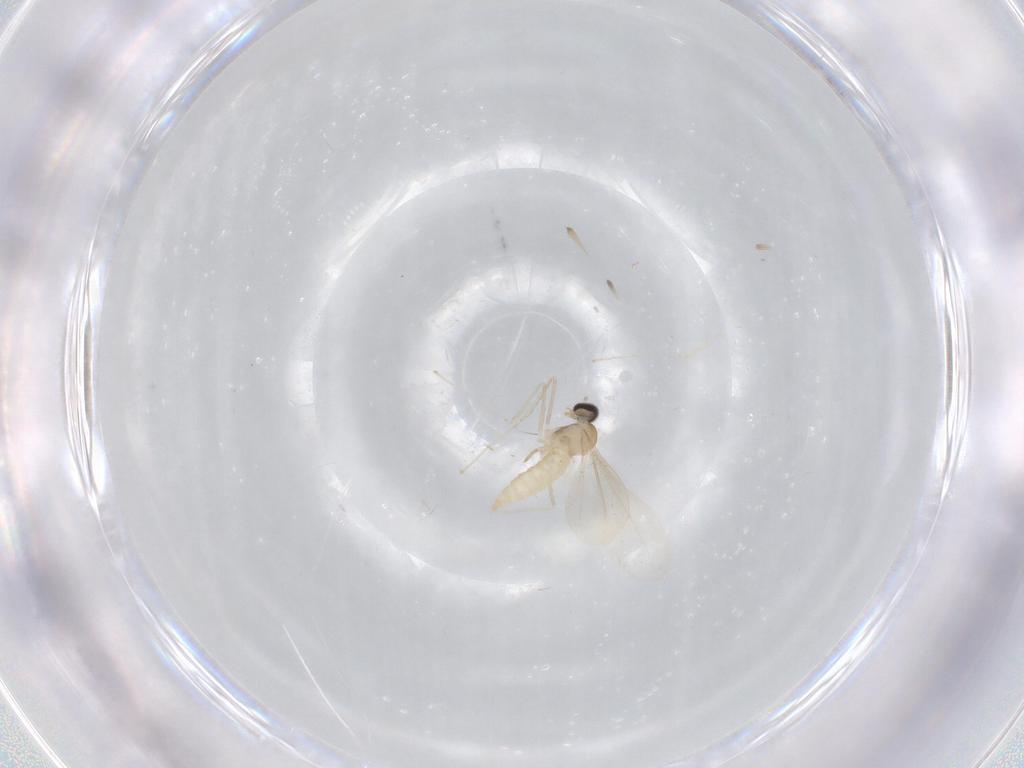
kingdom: Animalia
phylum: Arthropoda
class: Insecta
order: Diptera
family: Cecidomyiidae
